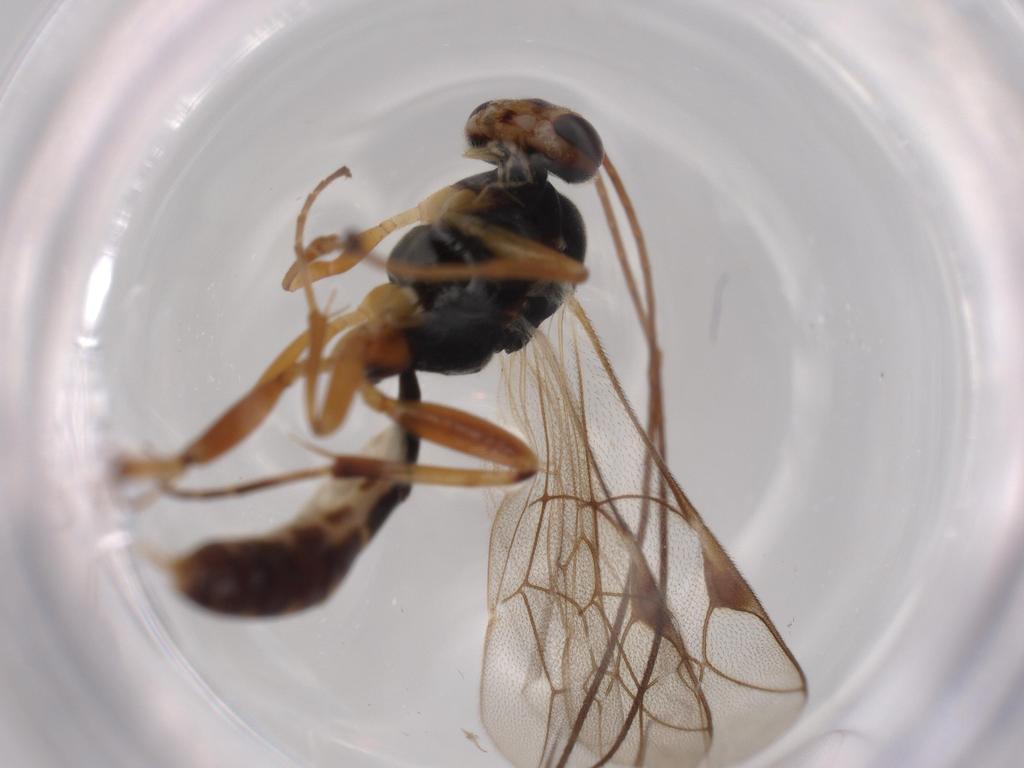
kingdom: Animalia
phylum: Arthropoda
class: Insecta
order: Hymenoptera
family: Ichneumonidae
